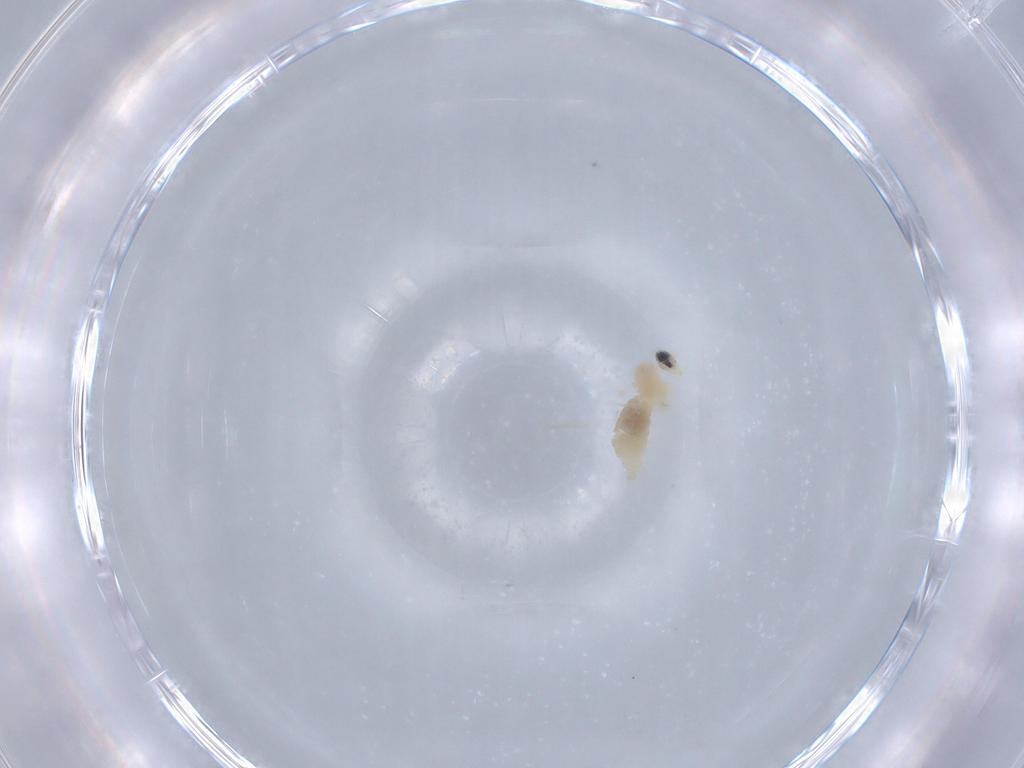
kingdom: Animalia
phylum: Arthropoda
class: Insecta
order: Diptera
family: Cecidomyiidae
